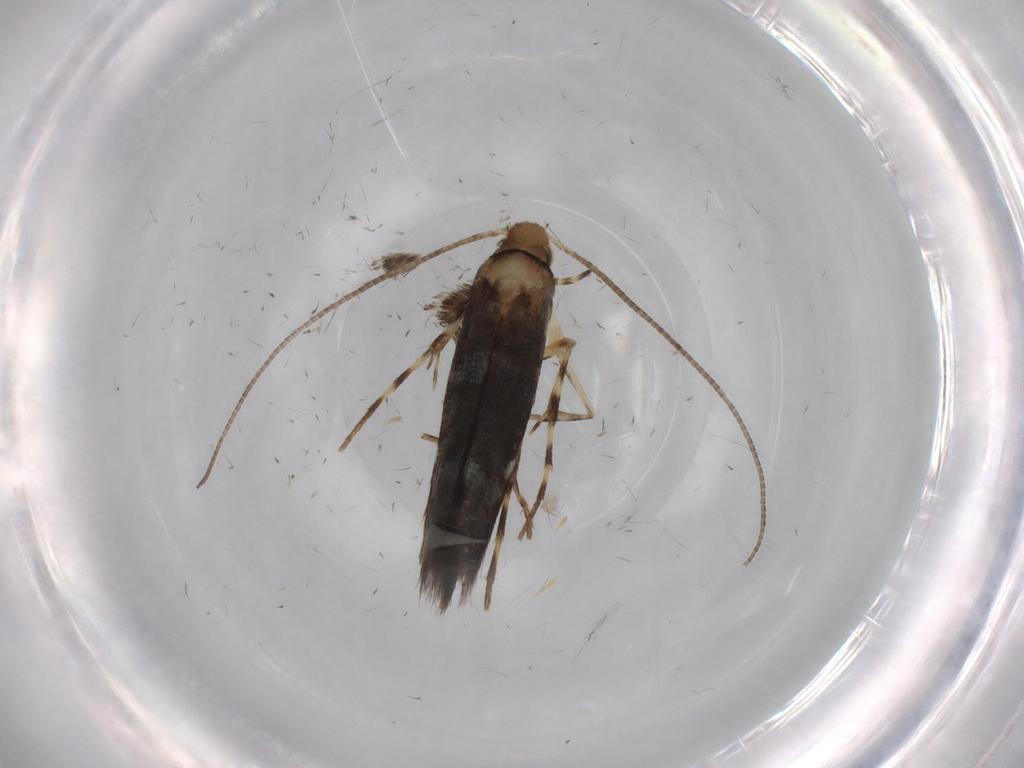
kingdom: Animalia
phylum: Arthropoda
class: Insecta
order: Lepidoptera
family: Gracillariidae
